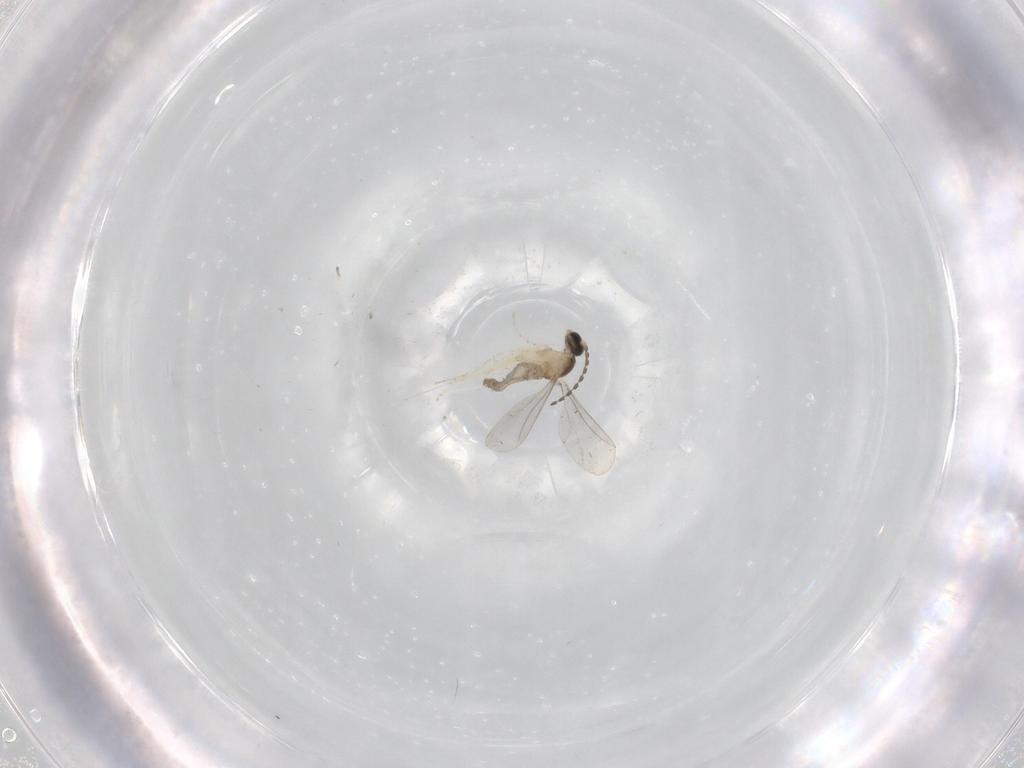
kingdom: Animalia
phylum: Arthropoda
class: Insecta
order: Diptera
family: Cecidomyiidae
